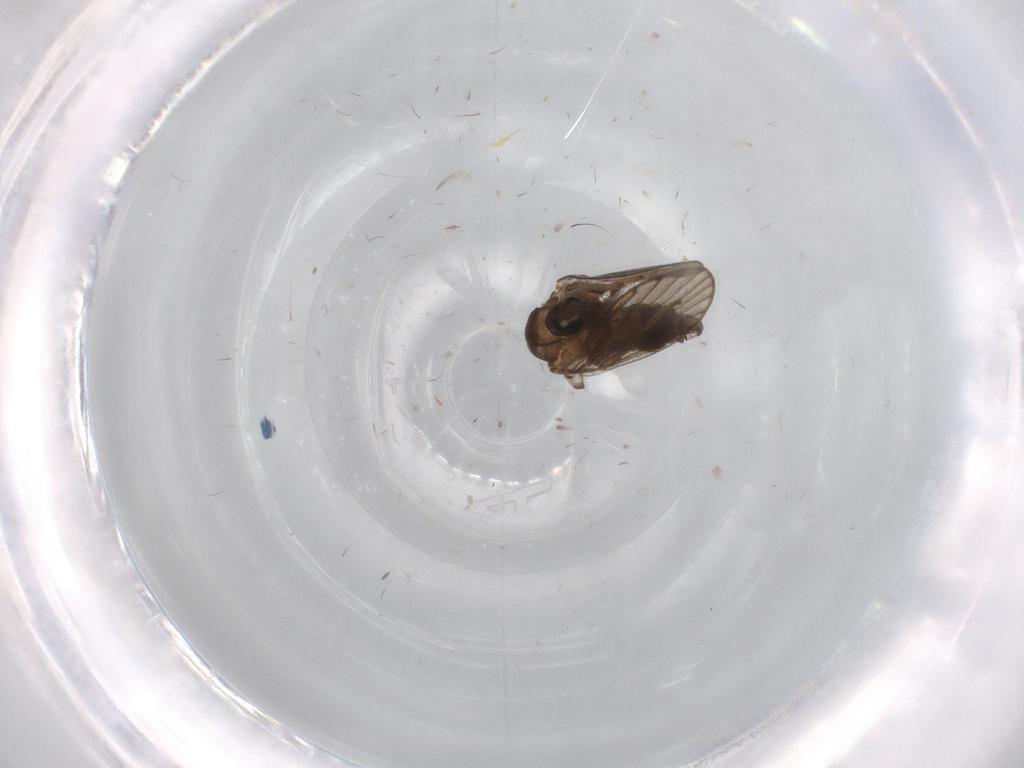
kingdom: Animalia
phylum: Arthropoda
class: Insecta
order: Diptera
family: Psychodidae
